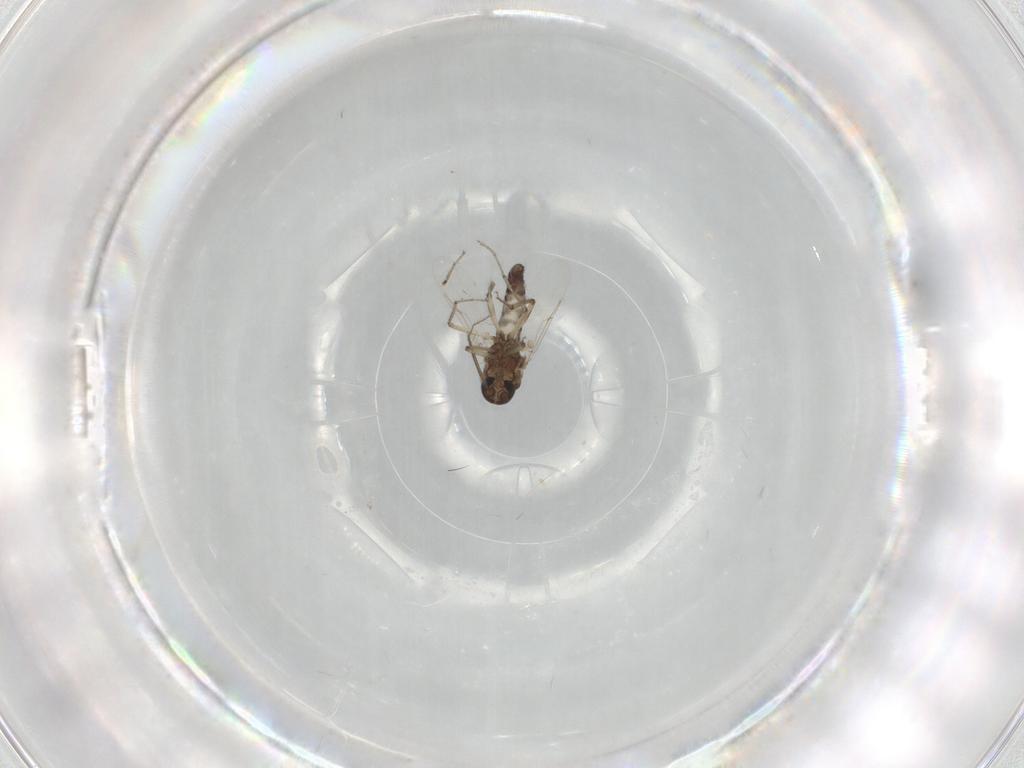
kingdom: Animalia
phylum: Arthropoda
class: Insecta
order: Diptera
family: Ceratopogonidae
